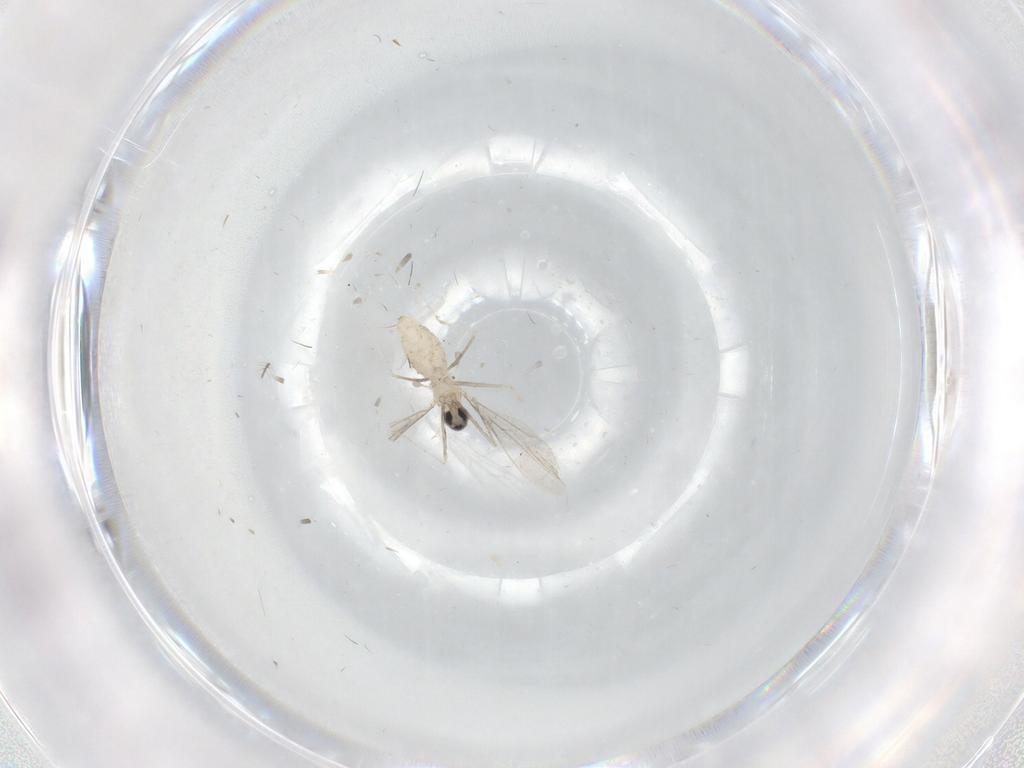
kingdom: Animalia
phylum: Arthropoda
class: Insecta
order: Diptera
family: Cecidomyiidae
